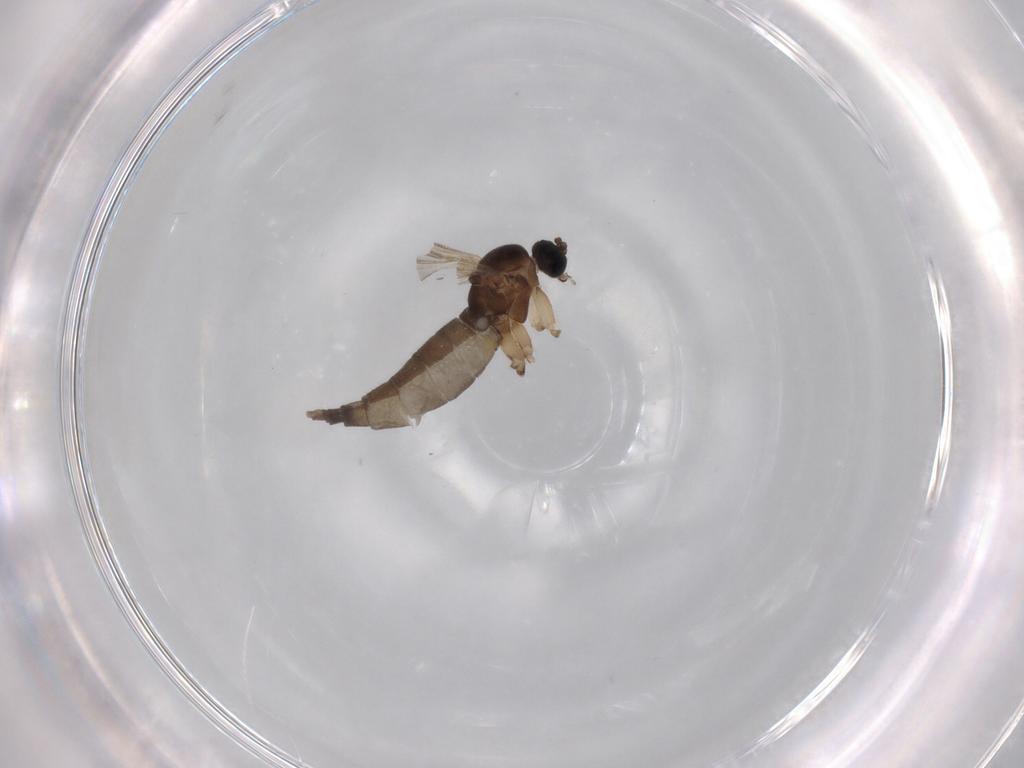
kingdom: Animalia
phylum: Arthropoda
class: Insecta
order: Diptera
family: Sciaridae
